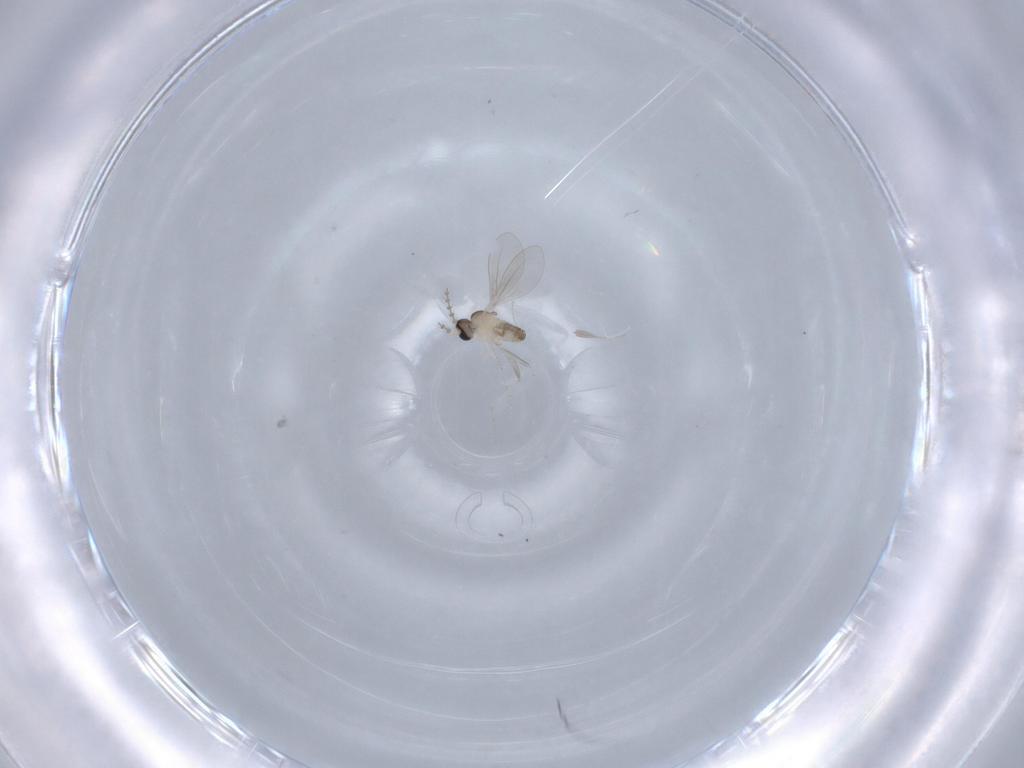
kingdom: Animalia
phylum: Arthropoda
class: Insecta
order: Diptera
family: Cecidomyiidae
